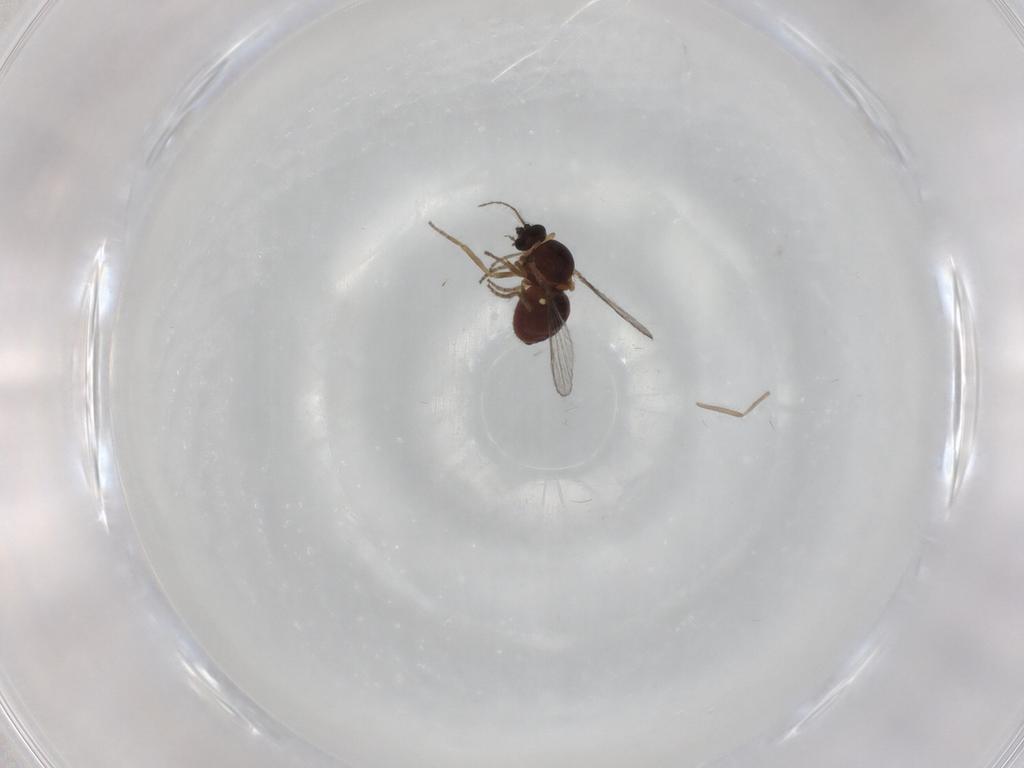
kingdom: Animalia
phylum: Arthropoda
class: Insecta
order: Diptera
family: Chironomidae
